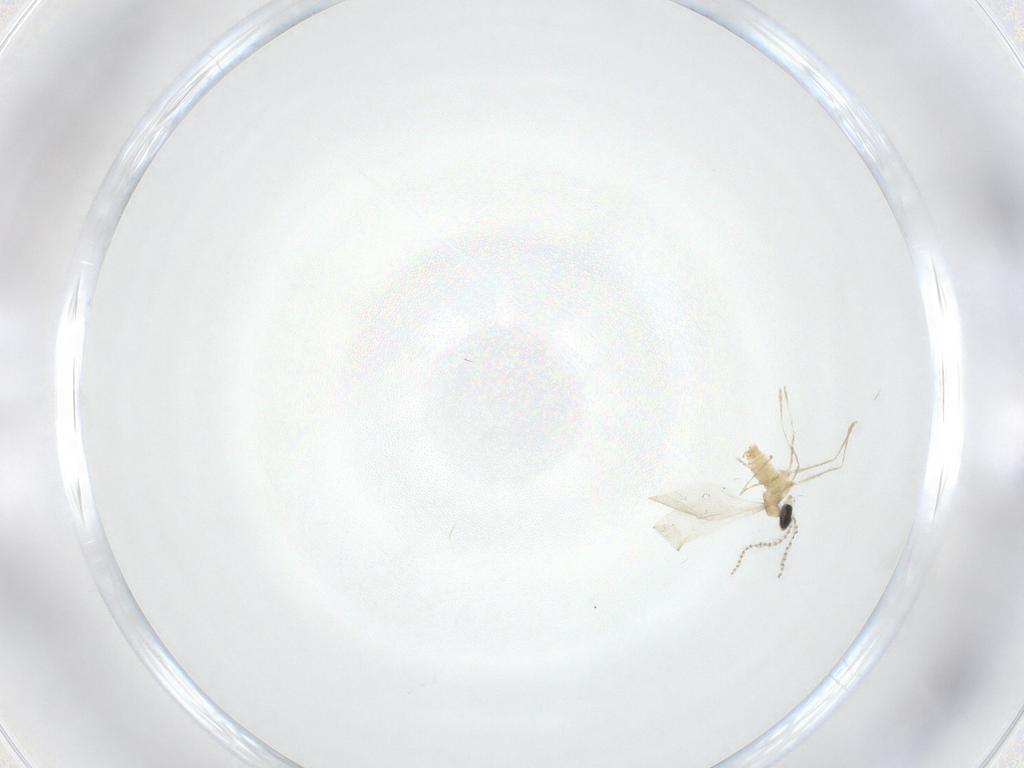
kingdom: Animalia
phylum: Arthropoda
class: Insecta
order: Diptera
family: Cecidomyiidae
